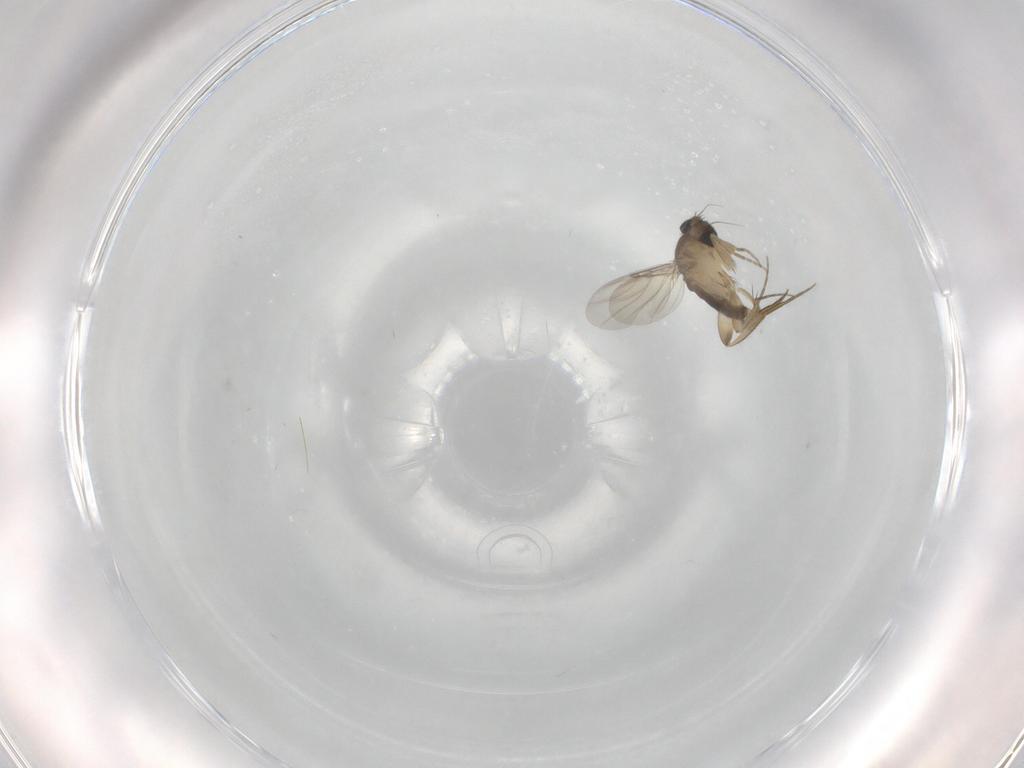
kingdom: Animalia
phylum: Arthropoda
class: Insecta
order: Diptera
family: Phoridae
